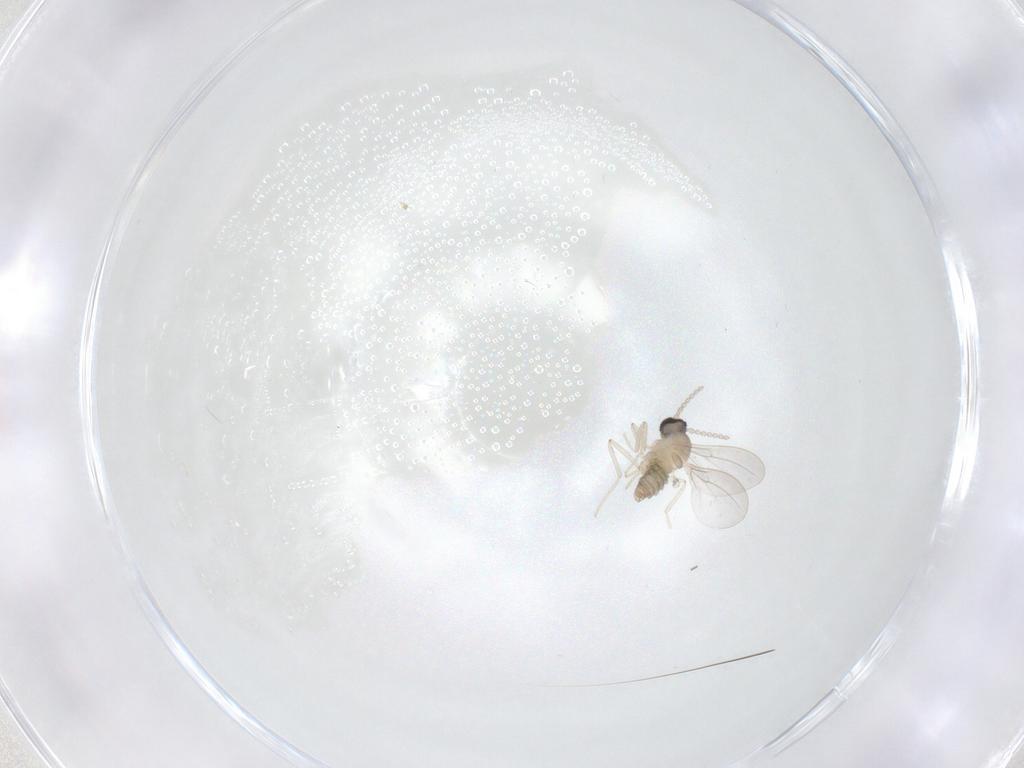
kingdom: Animalia
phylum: Arthropoda
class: Insecta
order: Diptera
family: Cecidomyiidae
